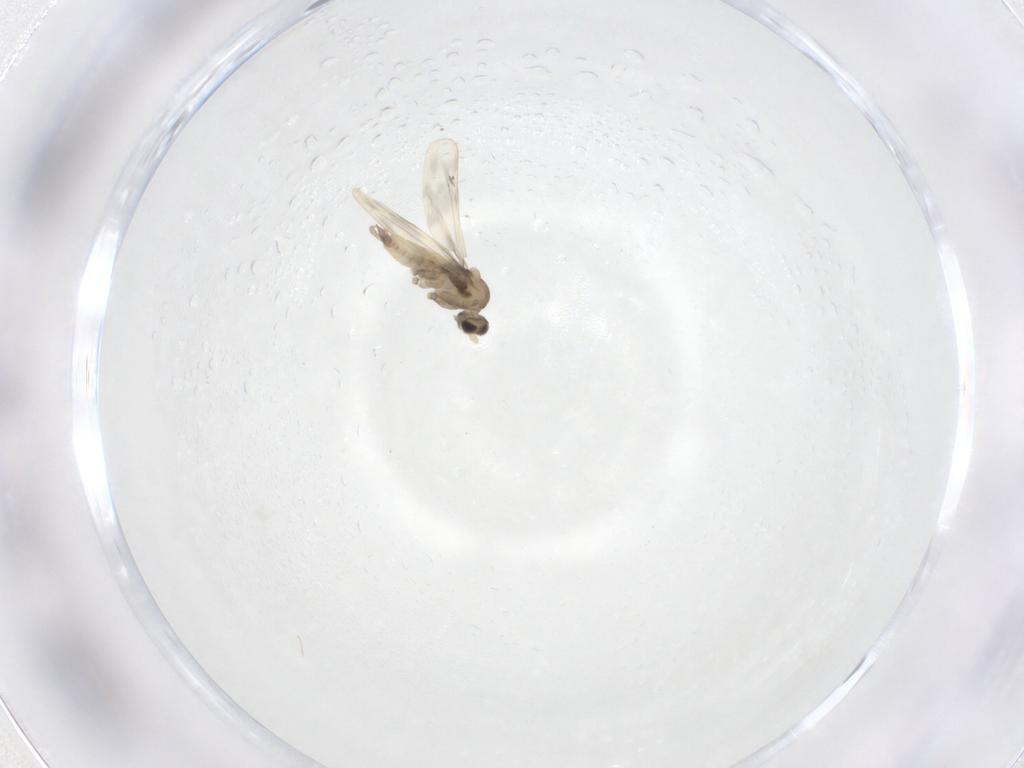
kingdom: Animalia
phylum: Arthropoda
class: Insecta
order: Diptera
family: Cecidomyiidae
